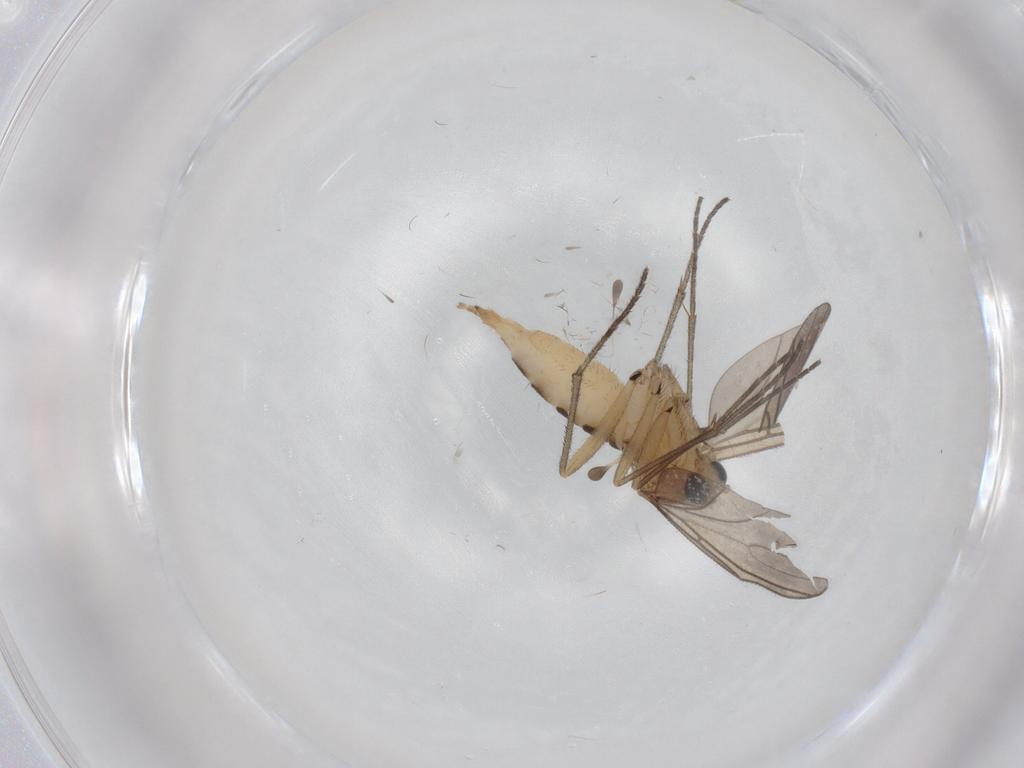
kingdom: Animalia
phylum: Arthropoda
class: Insecta
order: Diptera
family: Sciaridae
